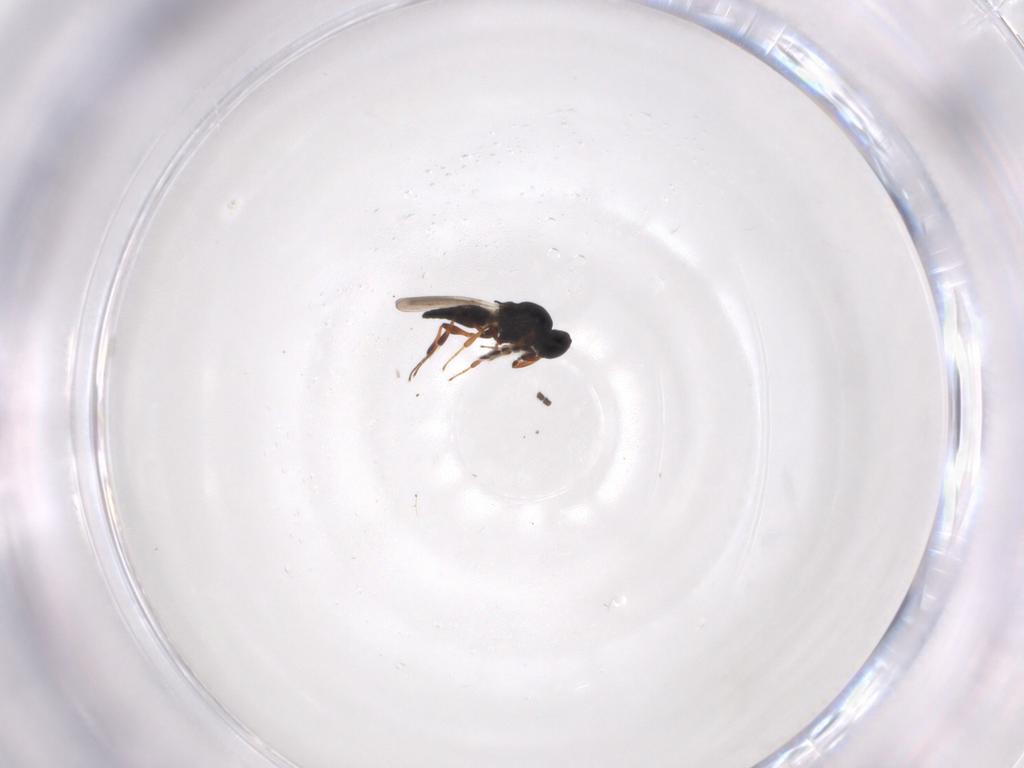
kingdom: Animalia
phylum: Arthropoda
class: Insecta
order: Hymenoptera
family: Platygastridae
